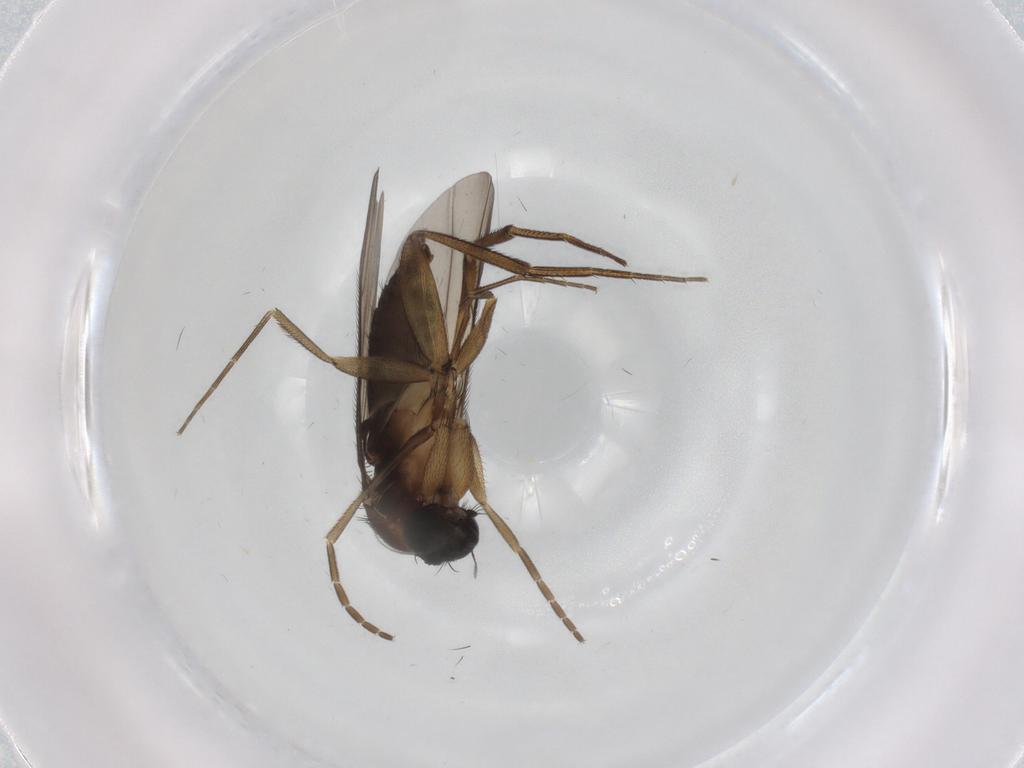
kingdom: Animalia
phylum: Arthropoda
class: Insecta
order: Diptera
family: Phoridae
